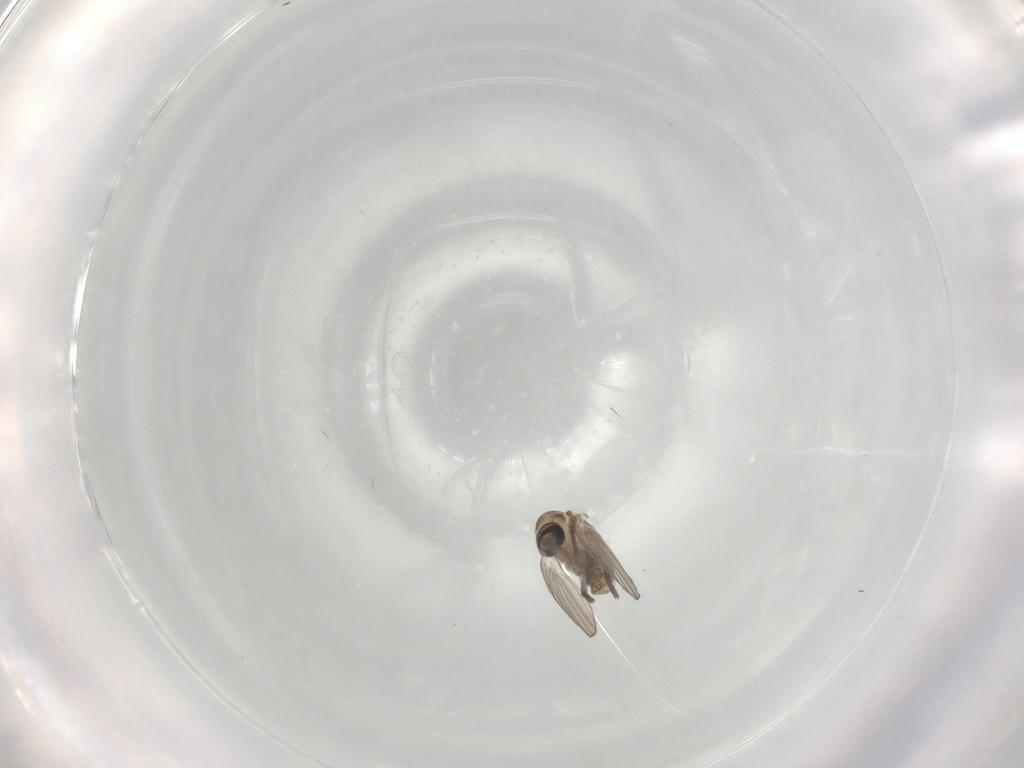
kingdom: Animalia
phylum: Arthropoda
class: Insecta
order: Diptera
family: Psychodidae
